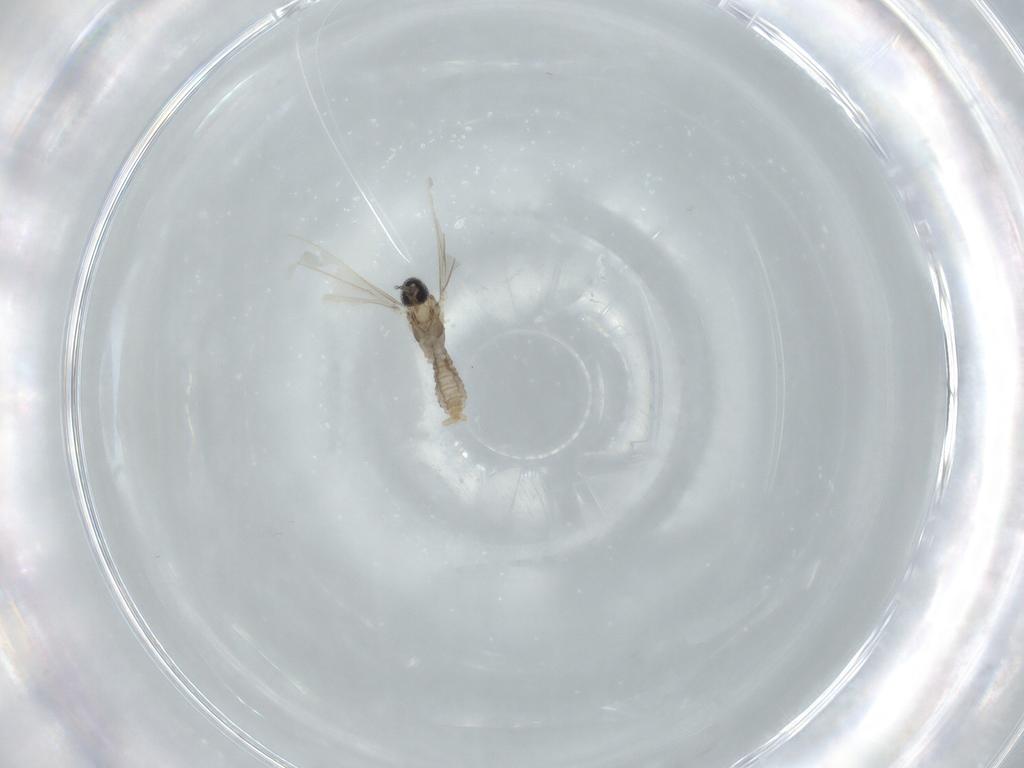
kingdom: Animalia
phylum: Arthropoda
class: Insecta
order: Diptera
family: Cecidomyiidae
